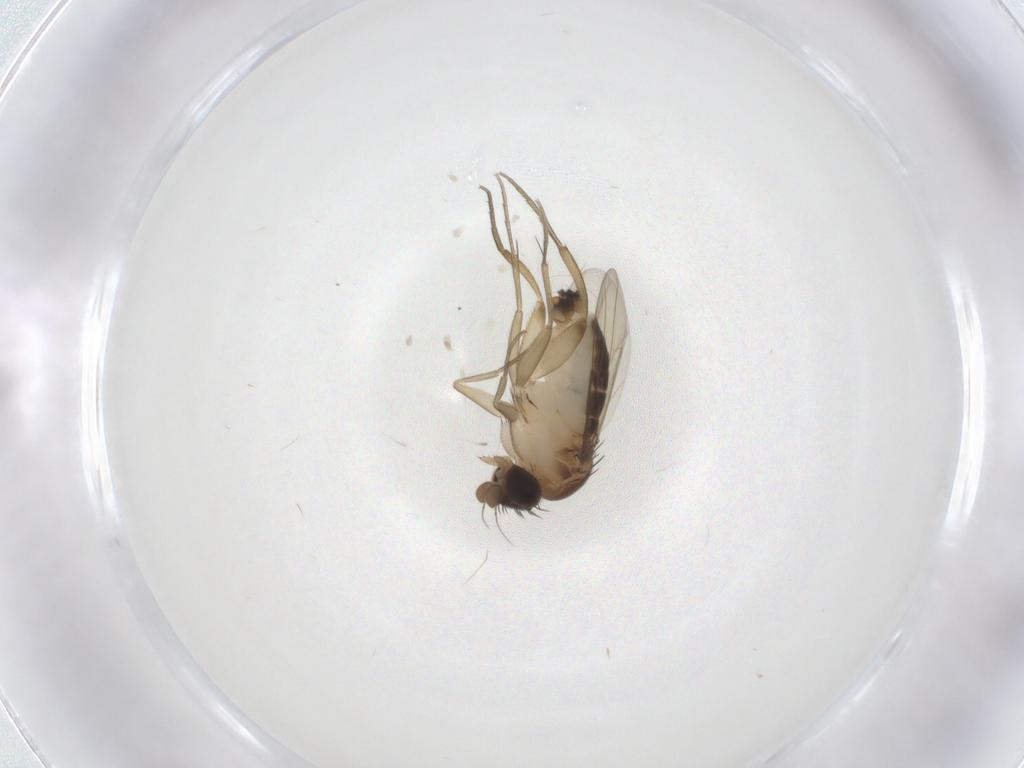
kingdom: Animalia
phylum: Arthropoda
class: Insecta
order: Diptera
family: Phoridae
